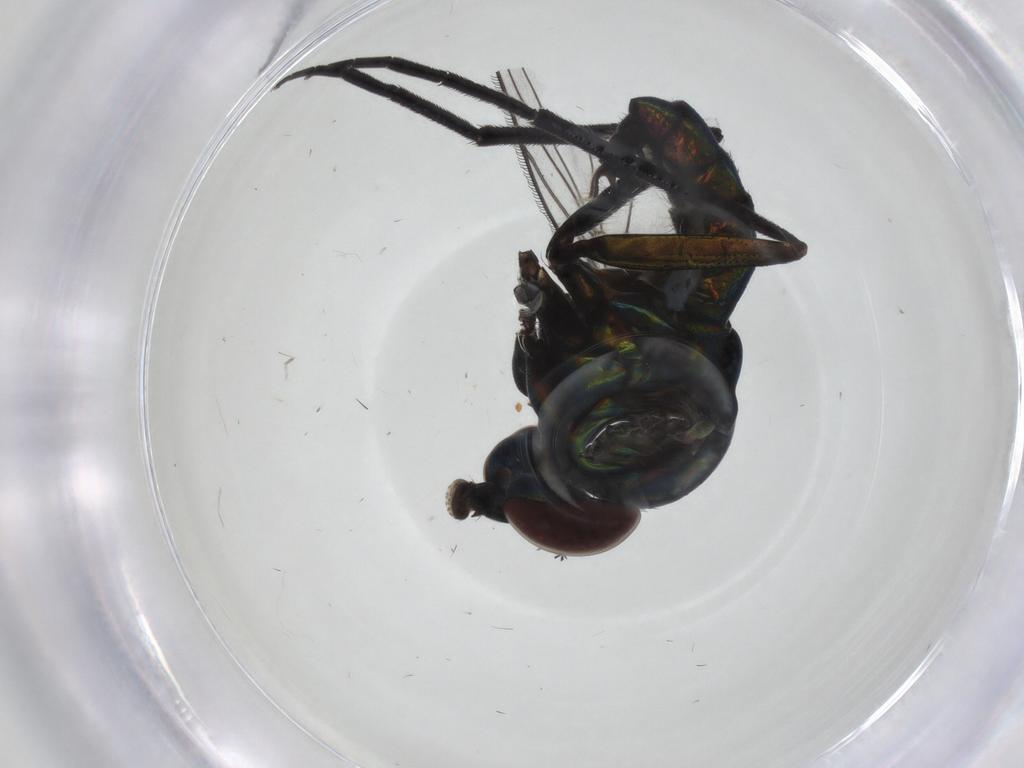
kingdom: Animalia
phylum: Arthropoda
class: Insecta
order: Diptera
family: Dolichopodidae
